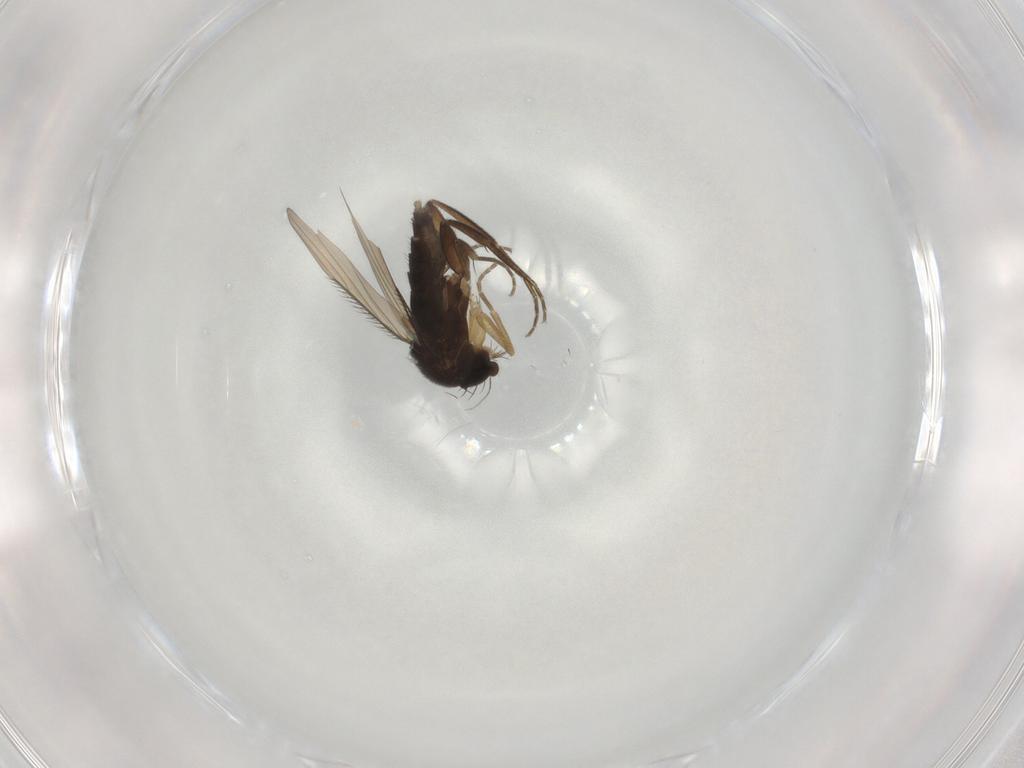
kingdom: Animalia
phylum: Arthropoda
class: Insecta
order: Diptera
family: Phoridae
